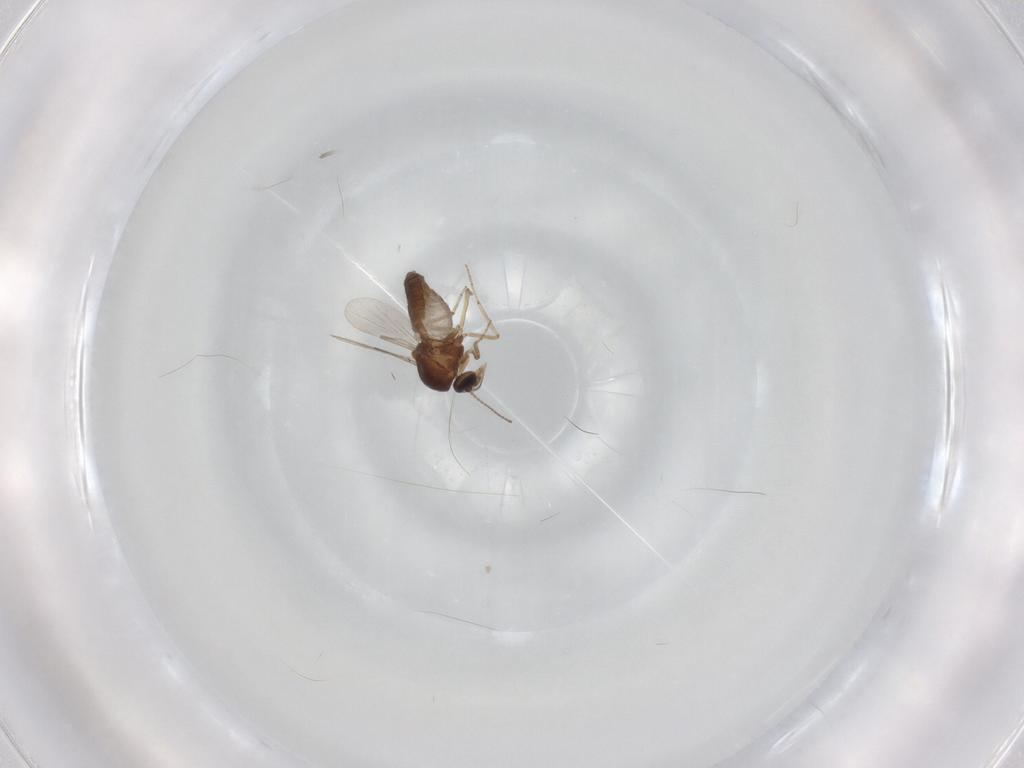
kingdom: Animalia
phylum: Arthropoda
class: Insecta
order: Diptera
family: Ceratopogonidae
